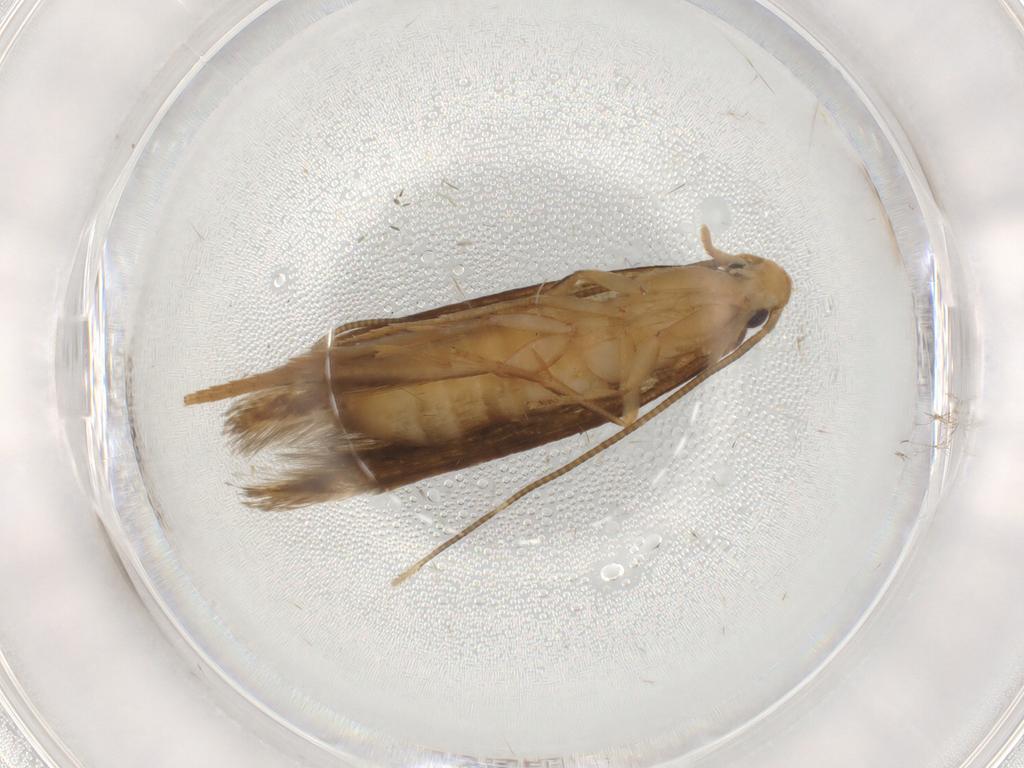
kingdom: Animalia
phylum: Arthropoda
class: Insecta
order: Lepidoptera
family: Tineidae
